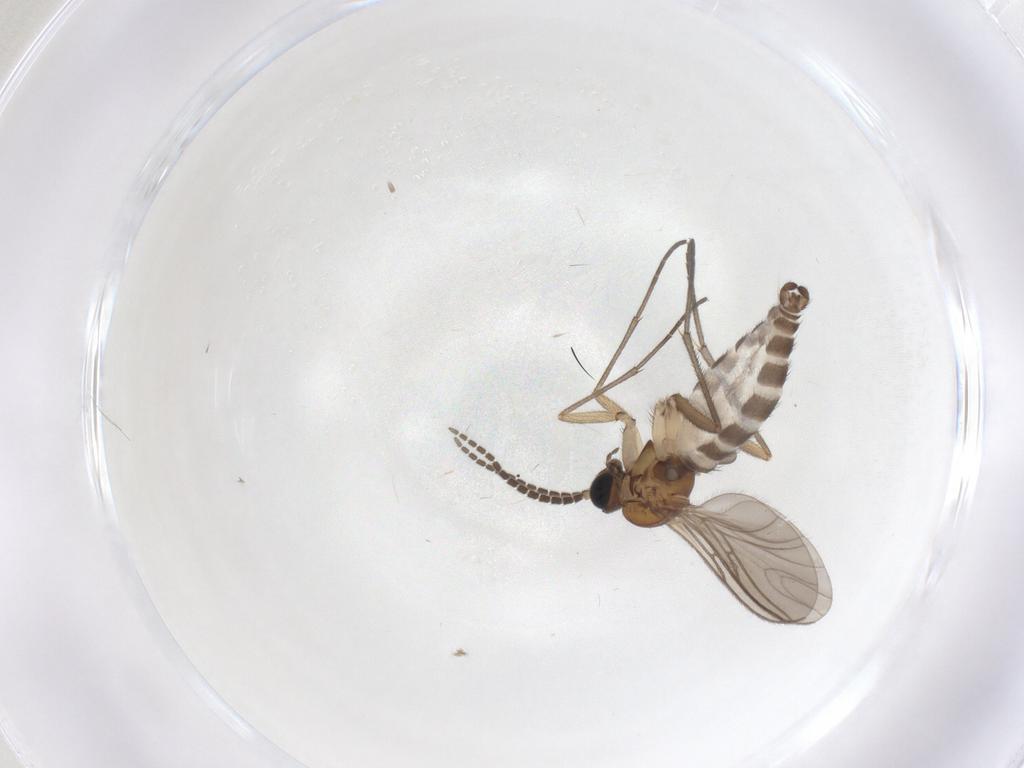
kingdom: Animalia
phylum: Arthropoda
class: Insecta
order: Diptera
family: Sciaridae
